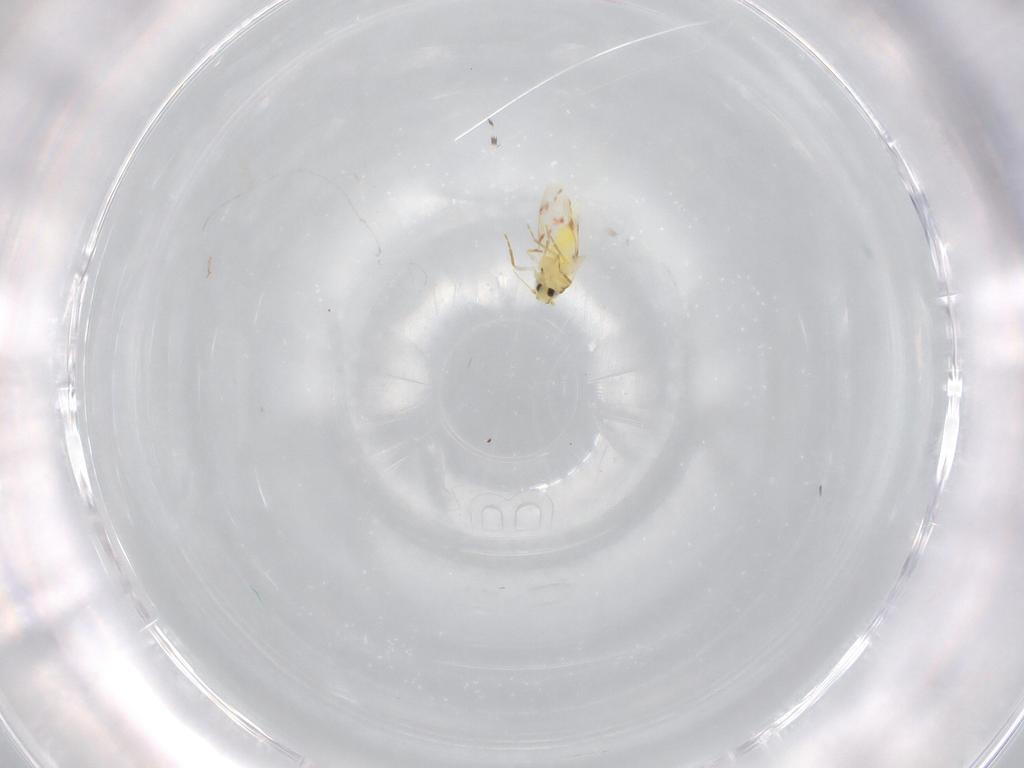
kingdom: Animalia
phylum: Arthropoda
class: Insecta
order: Hemiptera
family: Aleyrodidae
